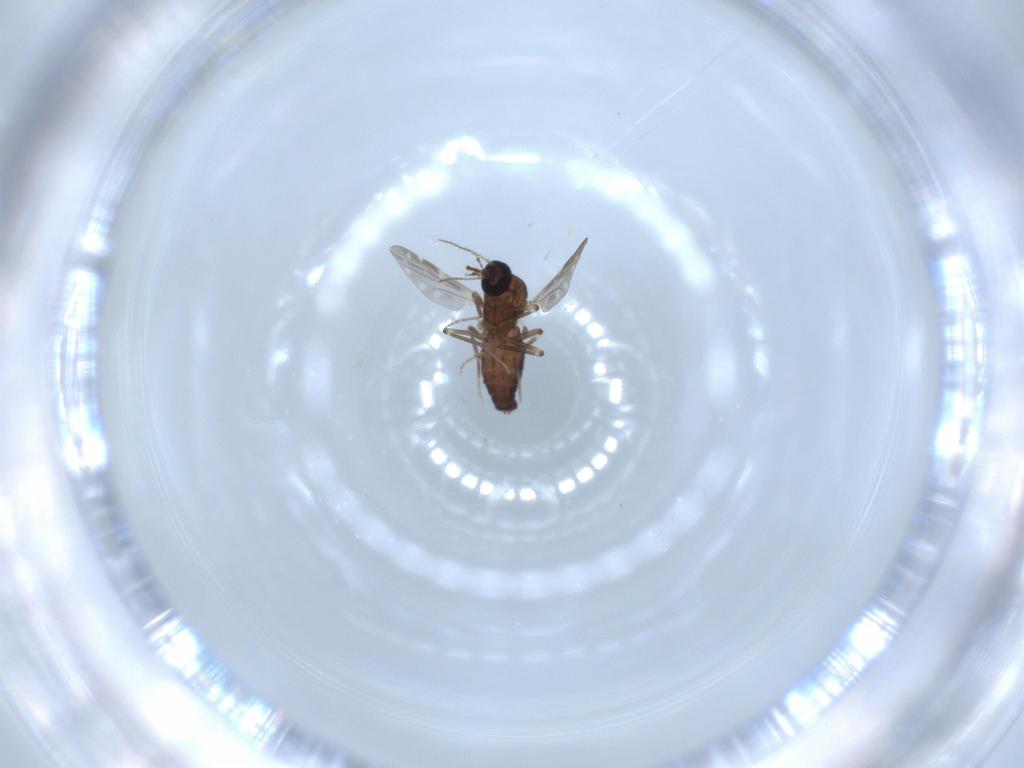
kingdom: Animalia
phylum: Arthropoda
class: Insecta
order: Diptera
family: Ceratopogonidae
